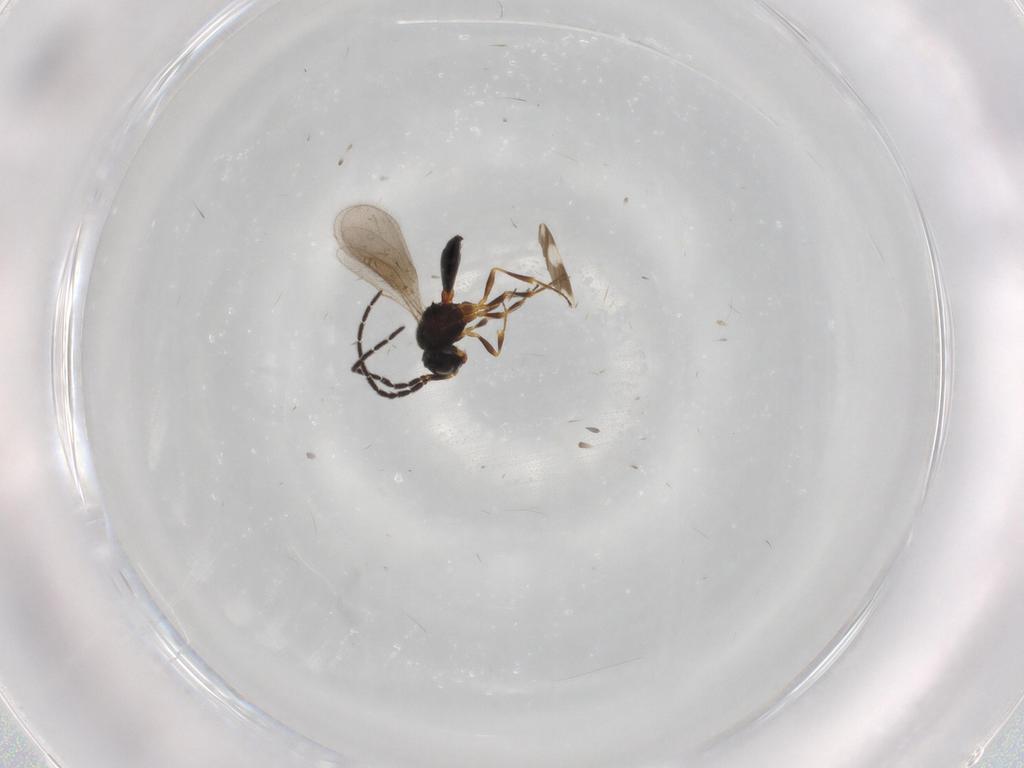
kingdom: Animalia
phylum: Arthropoda
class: Insecta
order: Hymenoptera
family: Scelionidae
